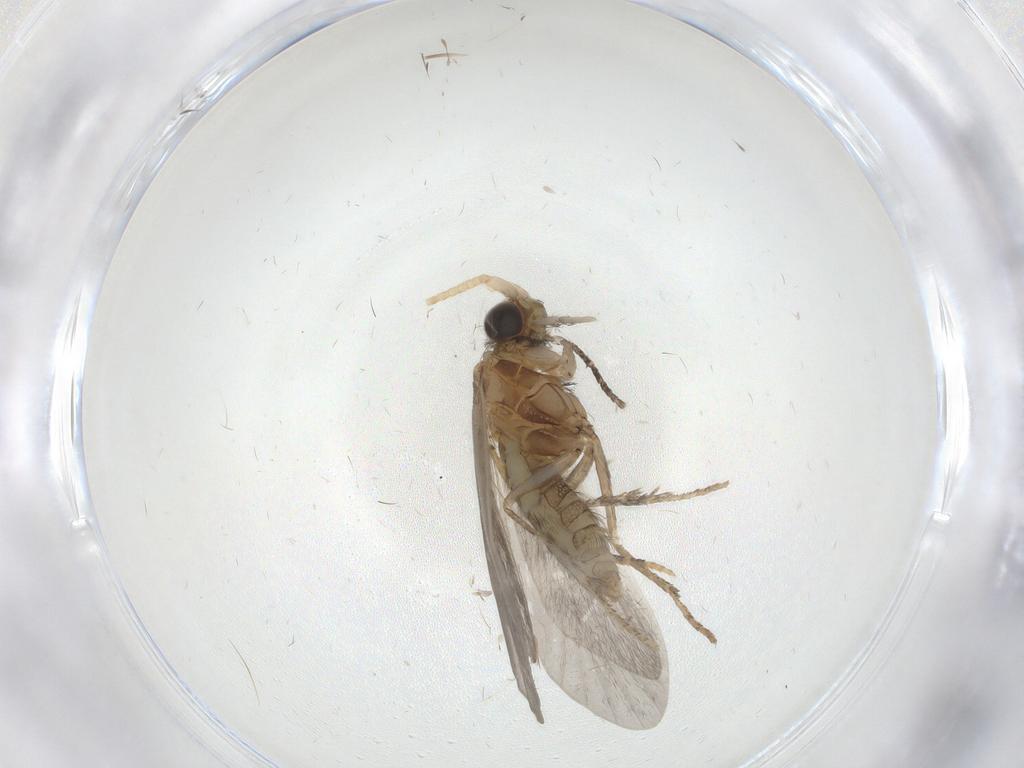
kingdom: Animalia
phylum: Arthropoda
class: Insecta
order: Trichoptera
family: Helicopsychidae
